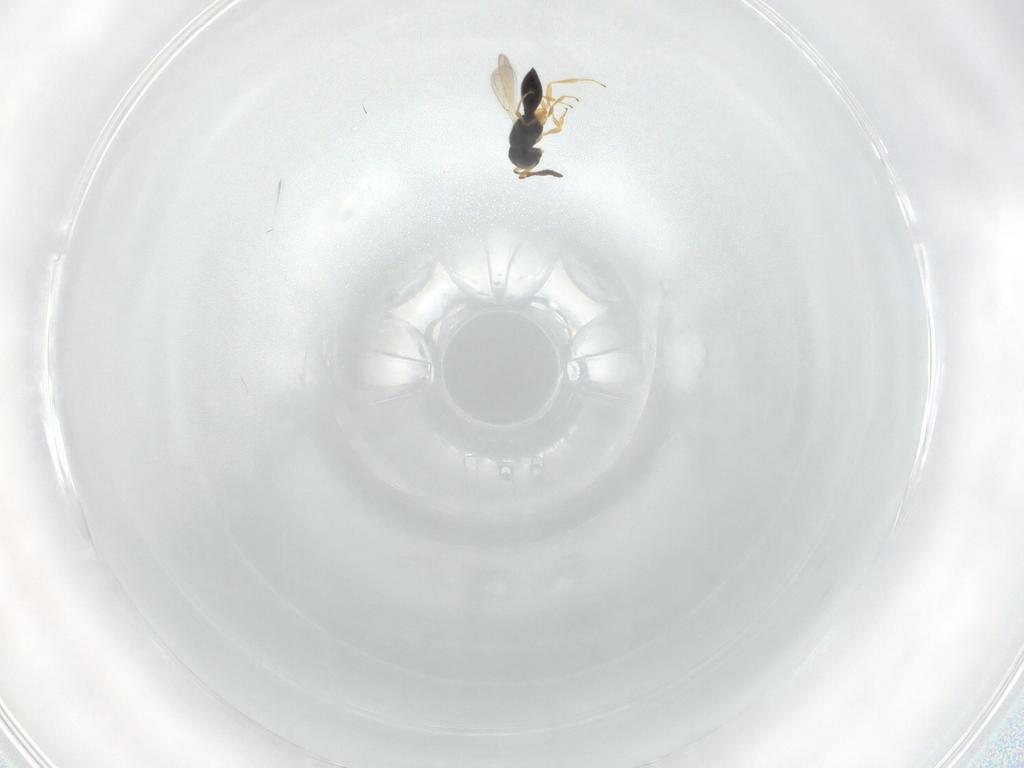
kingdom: Animalia
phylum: Arthropoda
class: Insecta
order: Hymenoptera
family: Scelionidae
